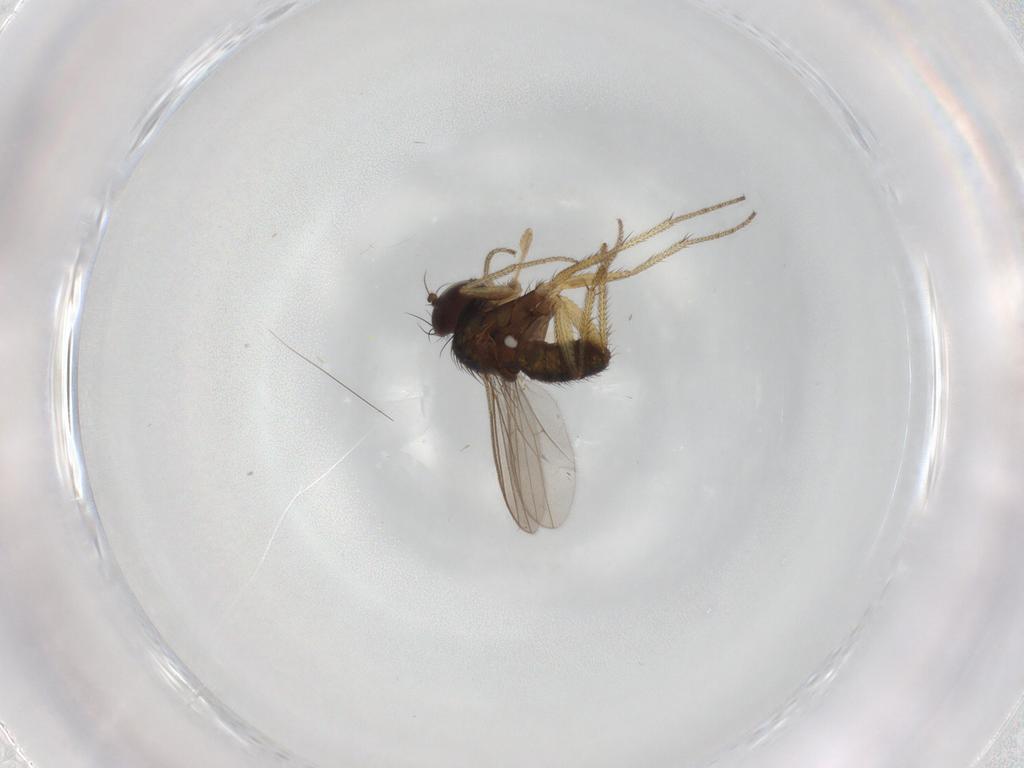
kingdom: Animalia
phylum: Arthropoda
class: Insecta
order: Diptera
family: Dolichopodidae
